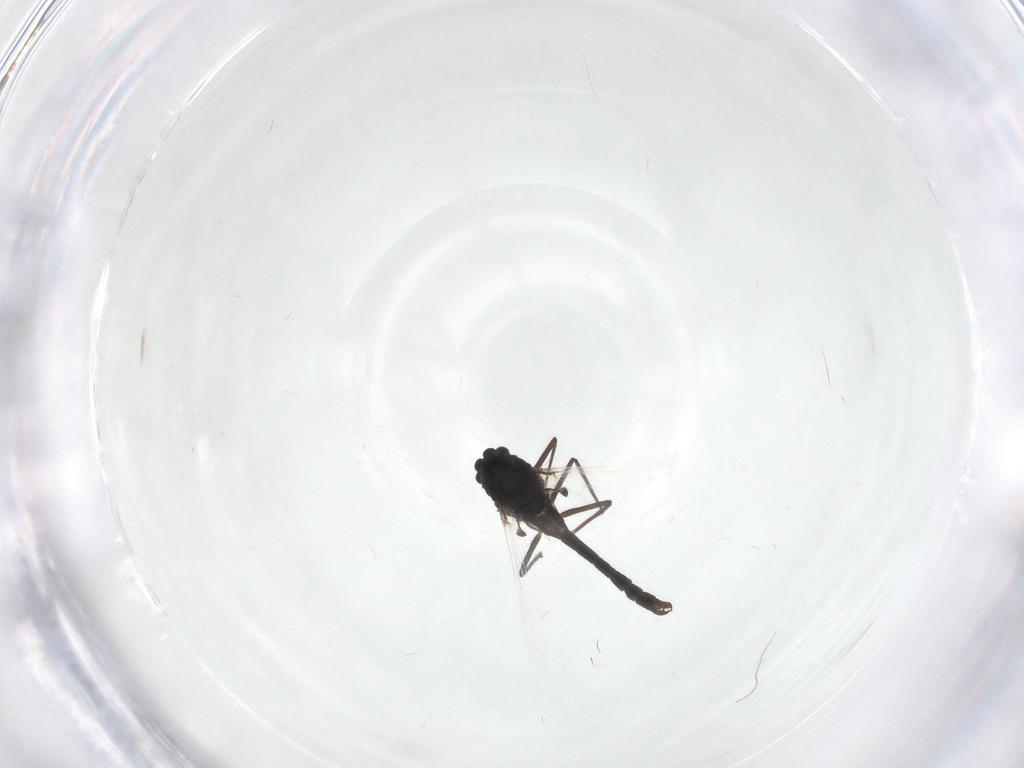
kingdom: Animalia
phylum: Arthropoda
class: Insecta
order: Diptera
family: Chironomidae
